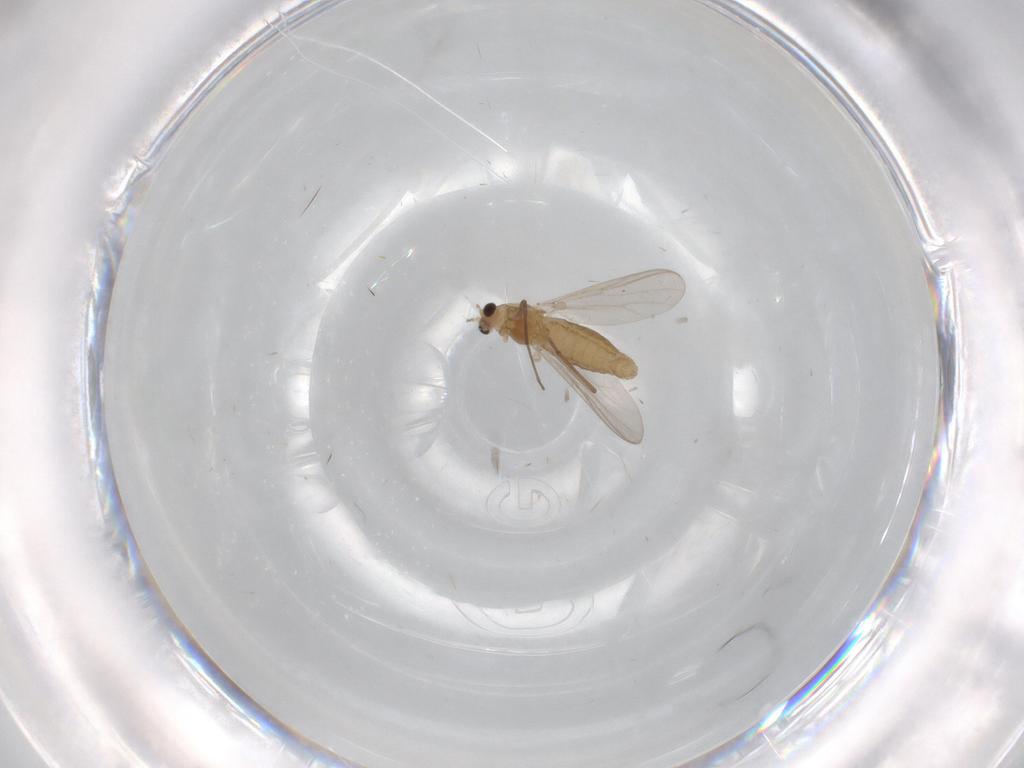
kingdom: Animalia
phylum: Arthropoda
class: Insecta
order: Diptera
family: Chironomidae
